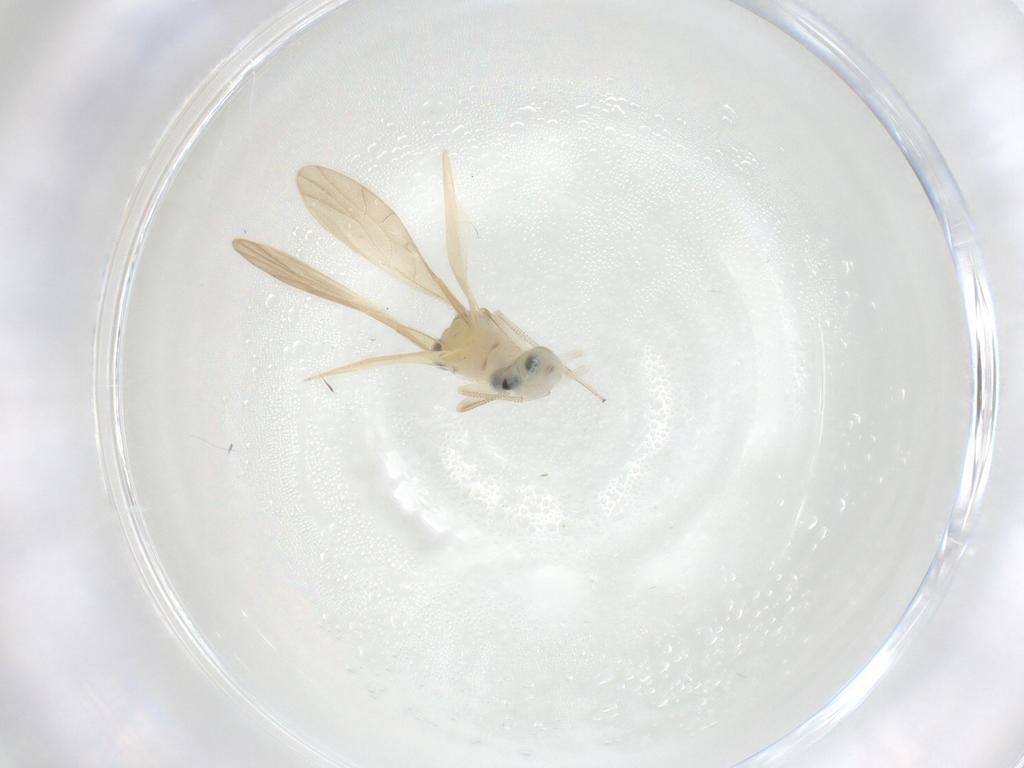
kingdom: Animalia
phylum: Arthropoda
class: Insecta
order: Psocodea
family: Caeciliusidae
